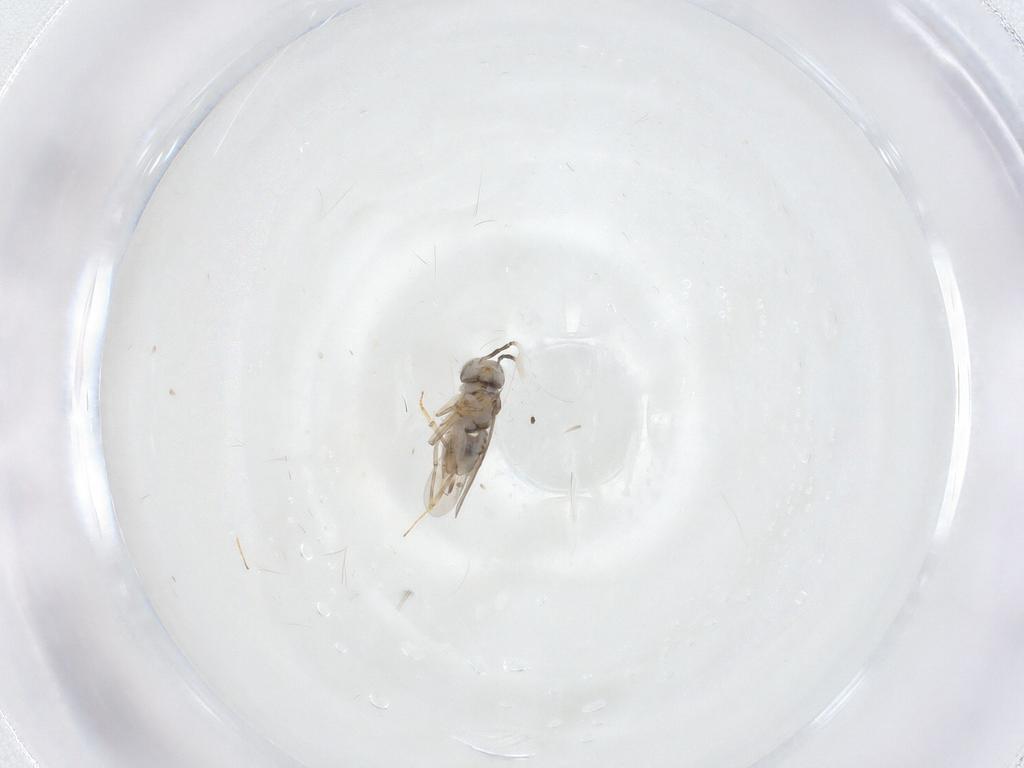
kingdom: Animalia
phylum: Arthropoda
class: Insecta
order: Hymenoptera
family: Encyrtidae
